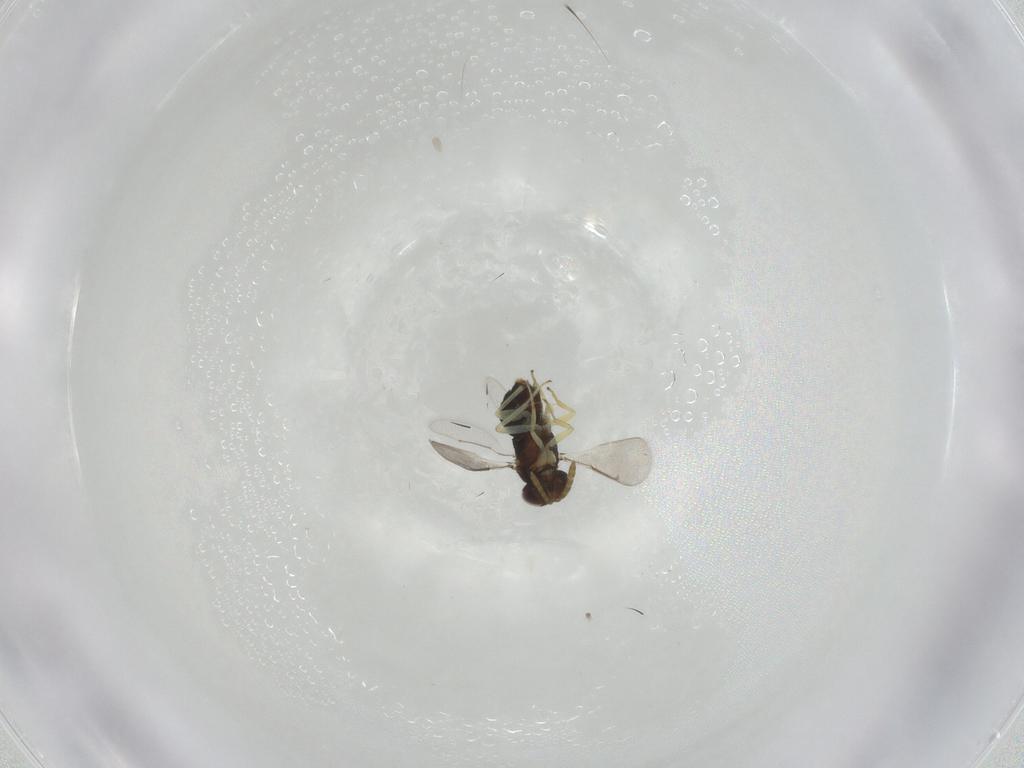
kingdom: Animalia
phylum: Arthropoda
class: Insecta
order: Hymenoptera
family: Aphelinidae
